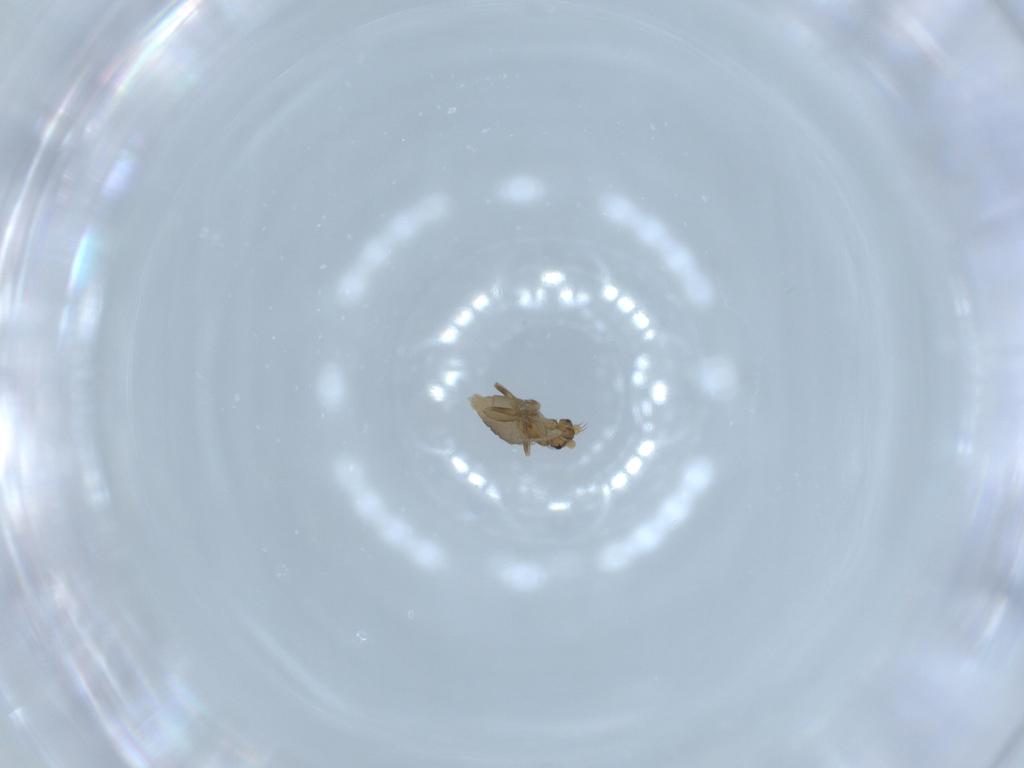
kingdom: Animalia
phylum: Arthropoda
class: Insecta
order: Diptera
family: Phoridae
